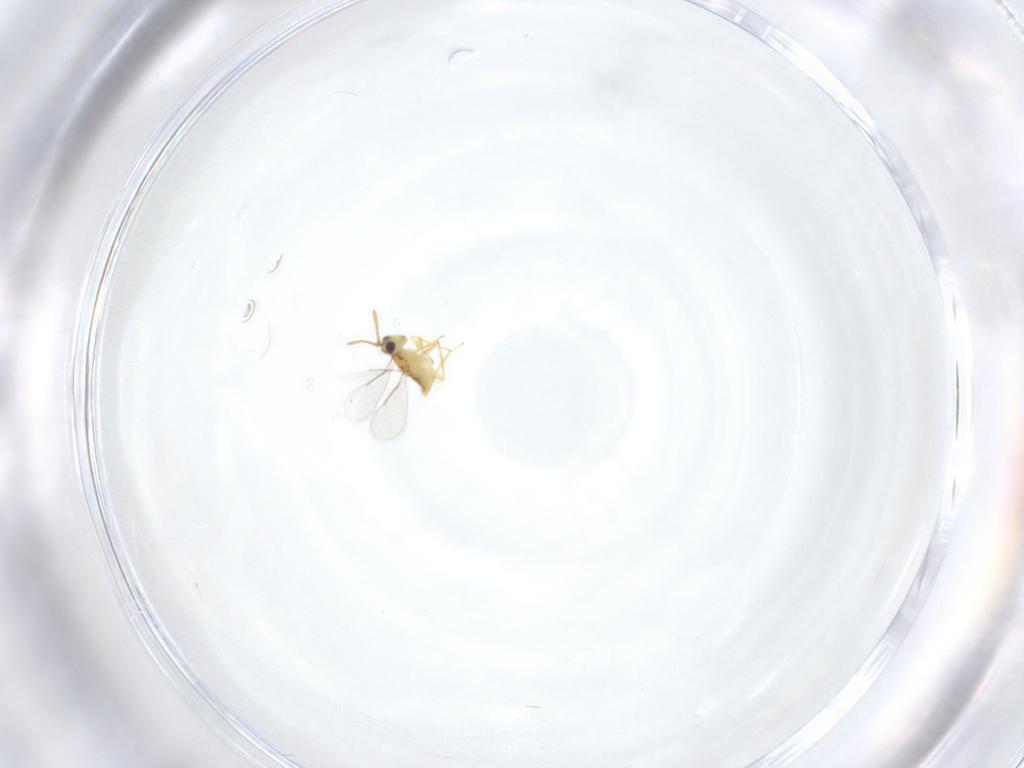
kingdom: Animalia
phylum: Arthropoda
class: Insecta
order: Hymenoptera
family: Aphelinidae
